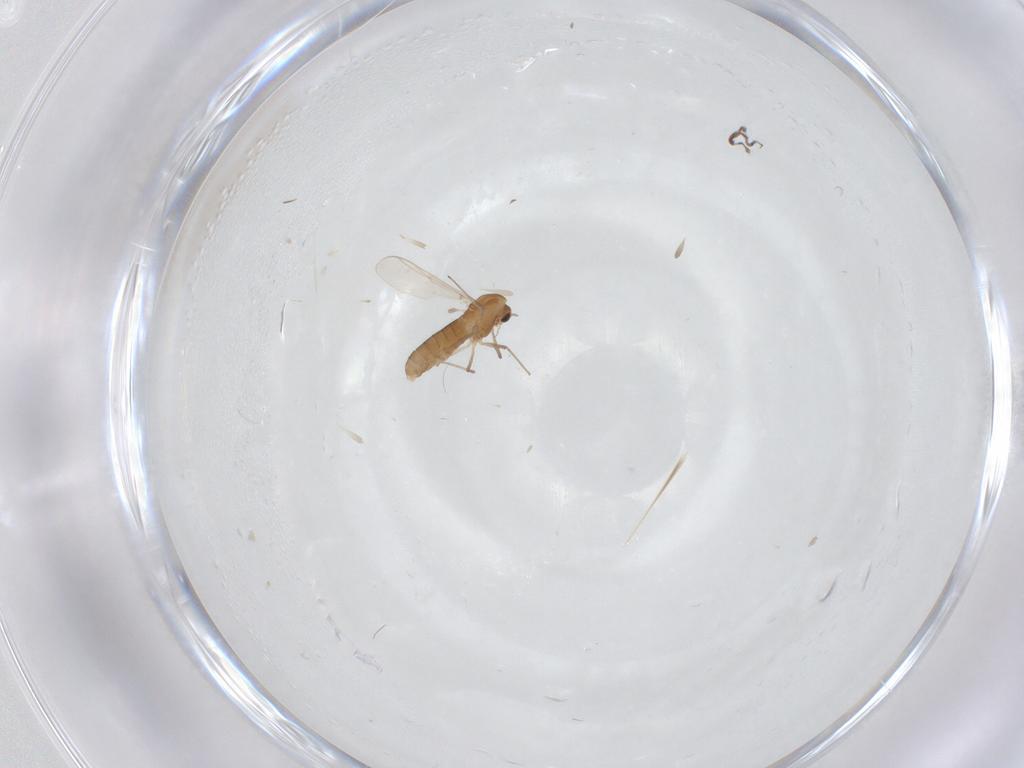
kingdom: Animalia
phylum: Arthropoda
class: Insecta
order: Diptera
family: Chironomidae
